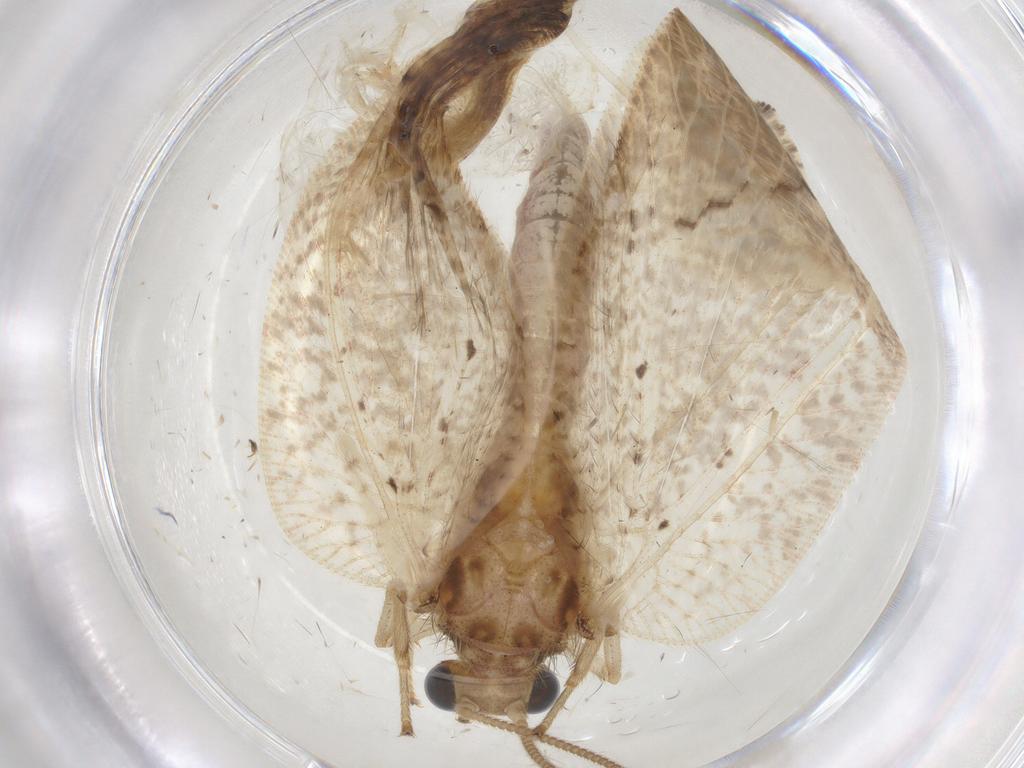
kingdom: Animalia
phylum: Arthropoda
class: Insecta
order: Neuroptera
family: Hemerobiidae
